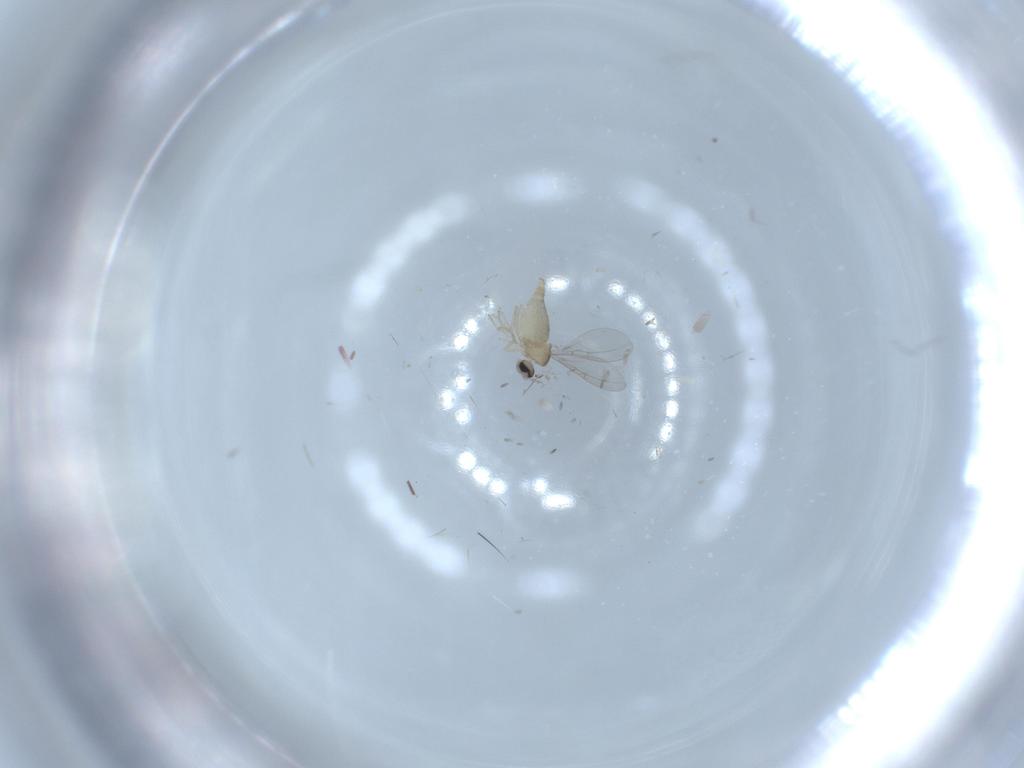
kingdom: Animalia
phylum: Arthropoda
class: Insecta
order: Diptera
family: Cecidomyiidae
